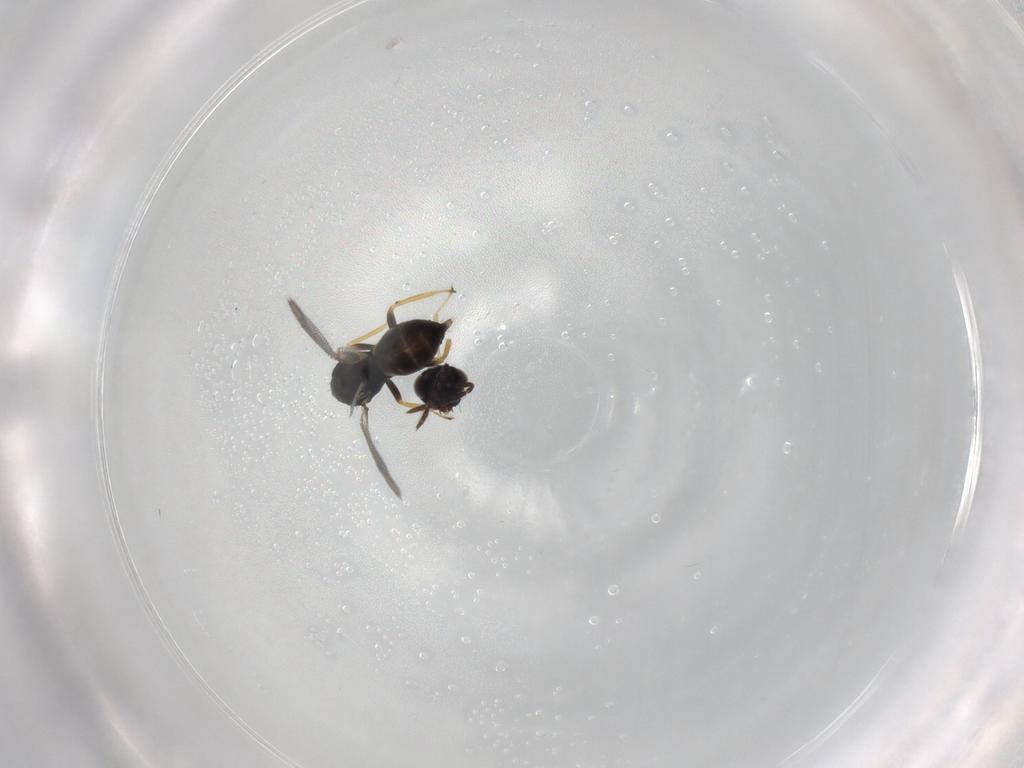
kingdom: Animalia
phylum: Arthropoda
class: Insecta
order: Hymenoptera
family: Eulophidae
